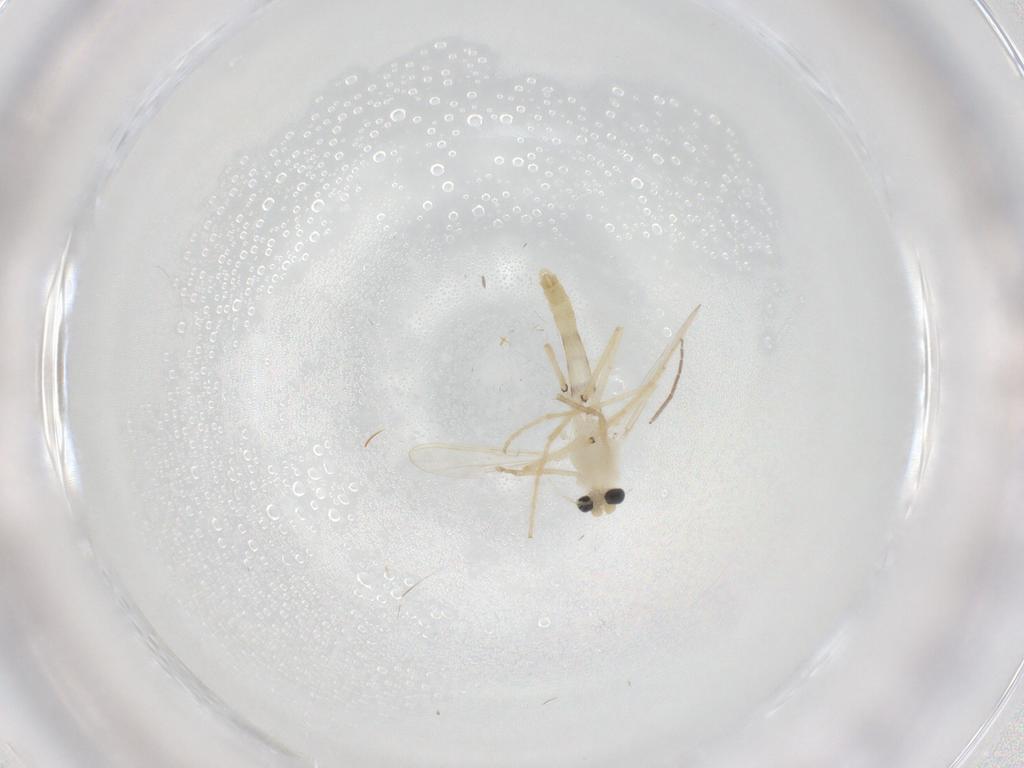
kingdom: Animalia
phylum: Arthropoda
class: Insecta
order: Diptera
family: Chironomidae
